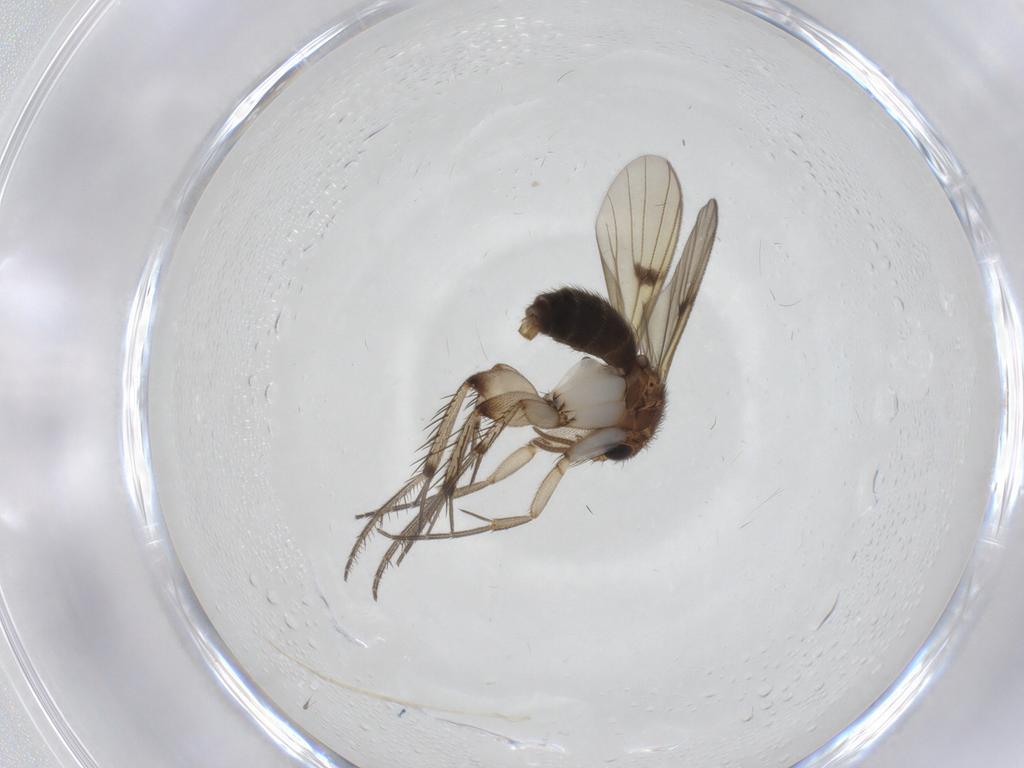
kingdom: Animalia
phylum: Arthropoda
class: Insecta
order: Diptera
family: Mycetophilidae
